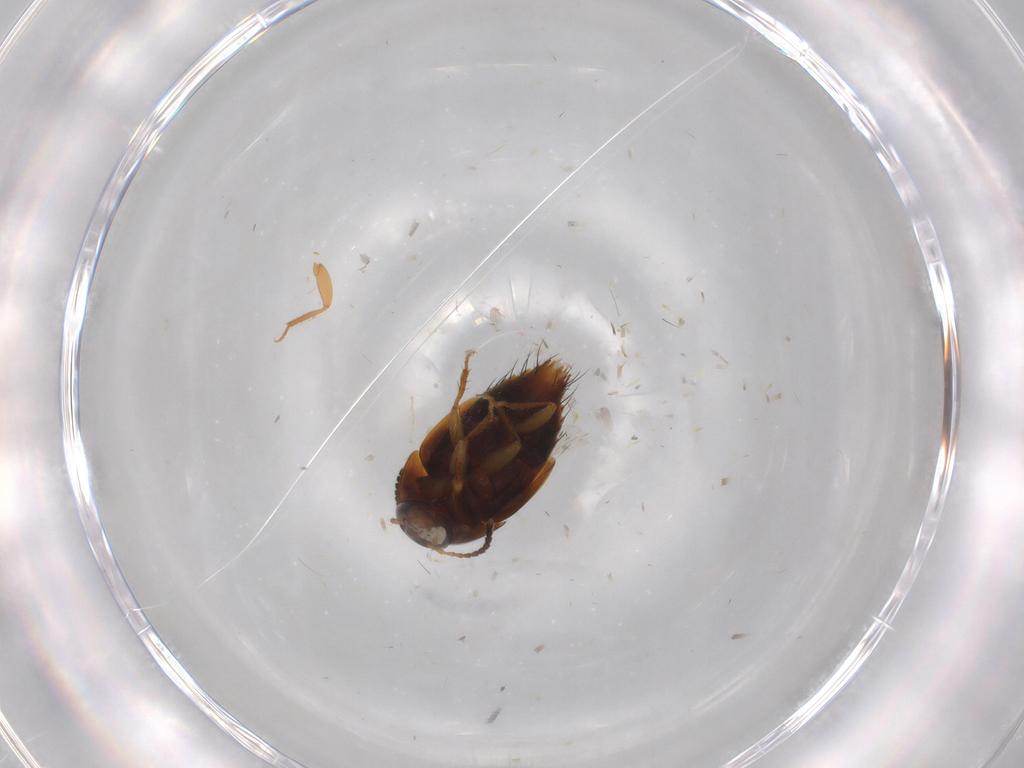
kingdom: Animalia
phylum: Arthropoda
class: Insecta
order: Coleoptera
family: Staphylinidae
